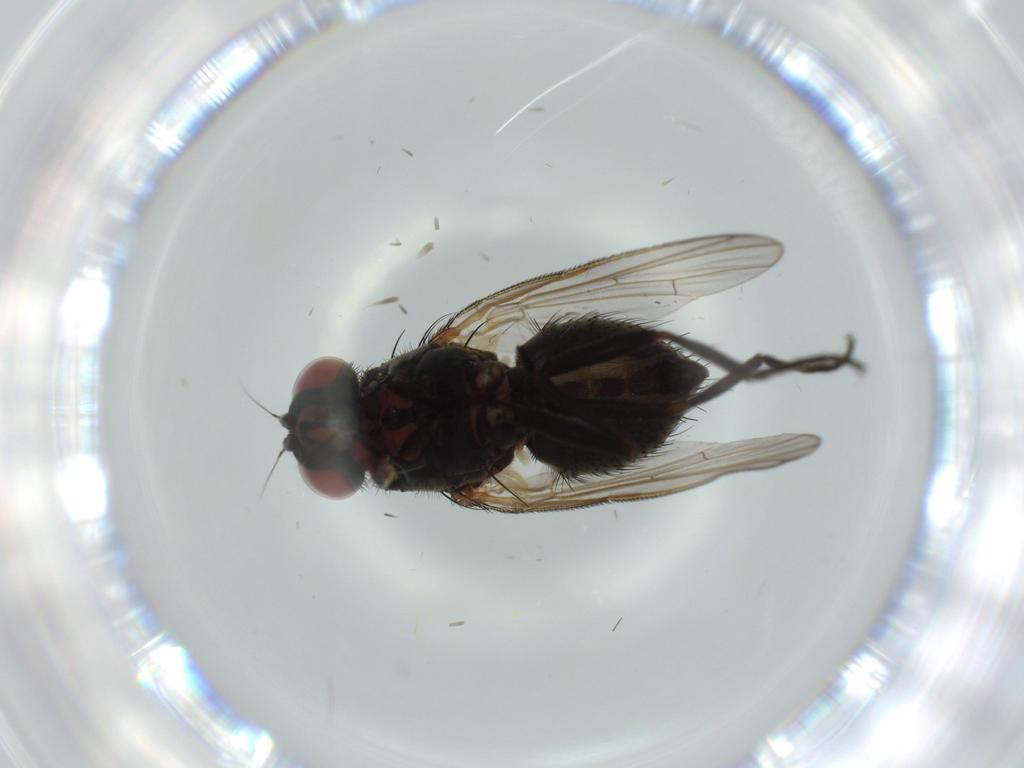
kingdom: Animalia
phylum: Arthropoda
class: Insecta
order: Diptera
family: Muscidae
